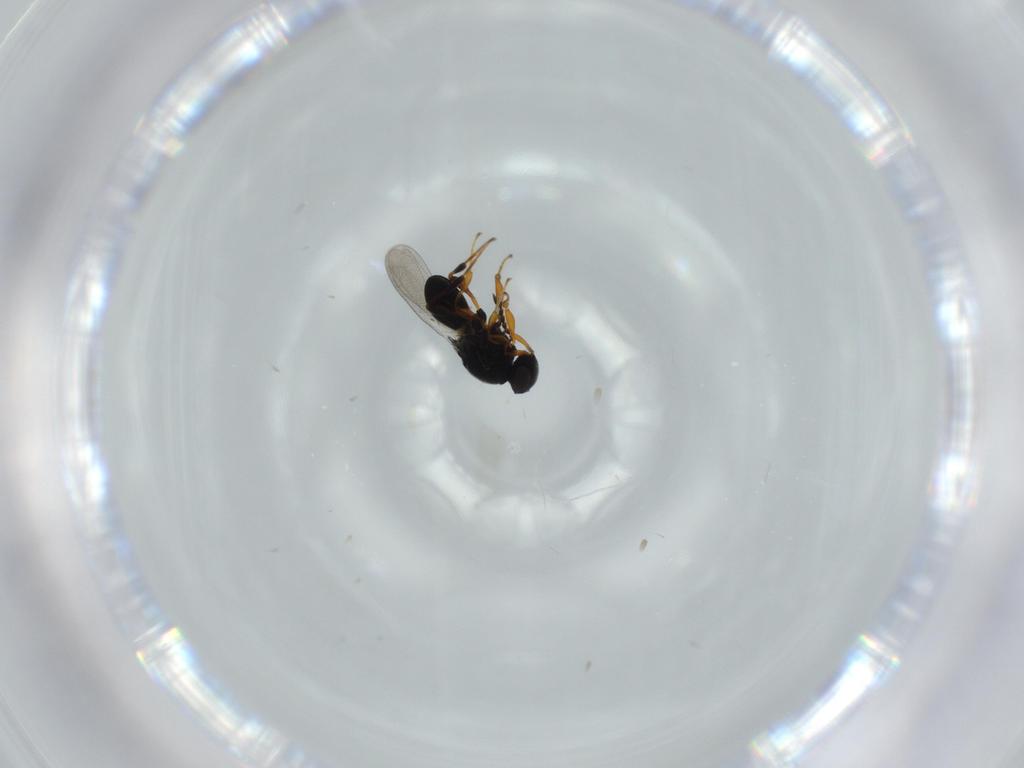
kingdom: Animalia
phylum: Arthropoda
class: Insecta
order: Hymenoptera
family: Platygastridae
